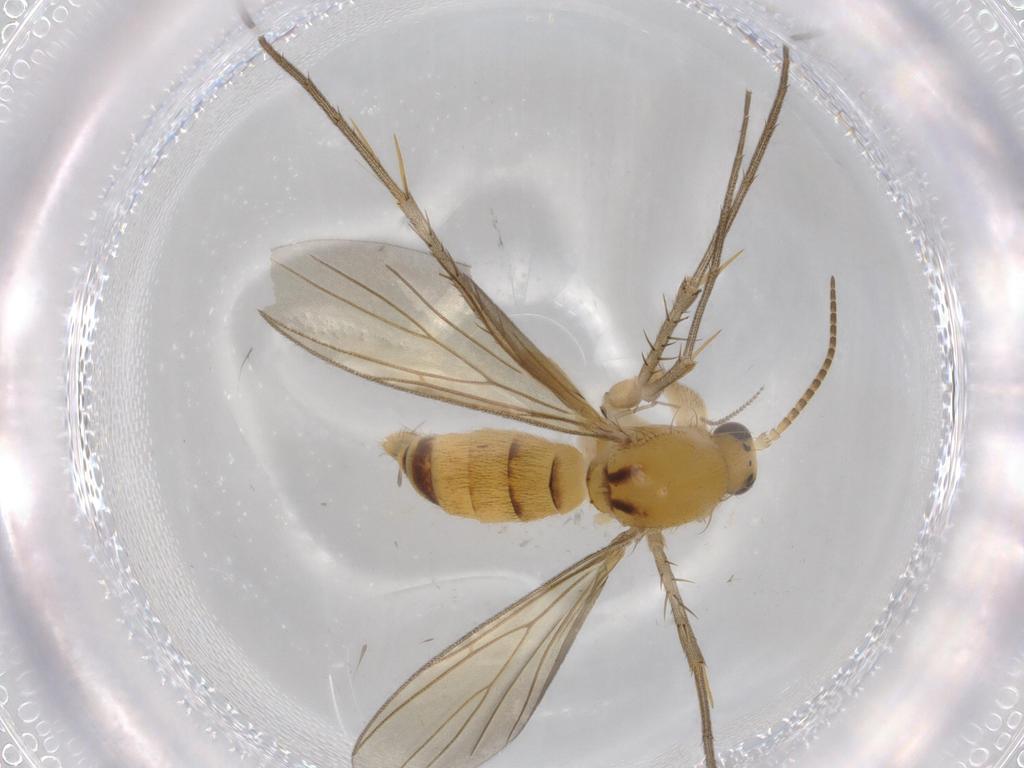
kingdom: Animalia
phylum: Arthropoda
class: Insecta
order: Diptera
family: Sciaridae
